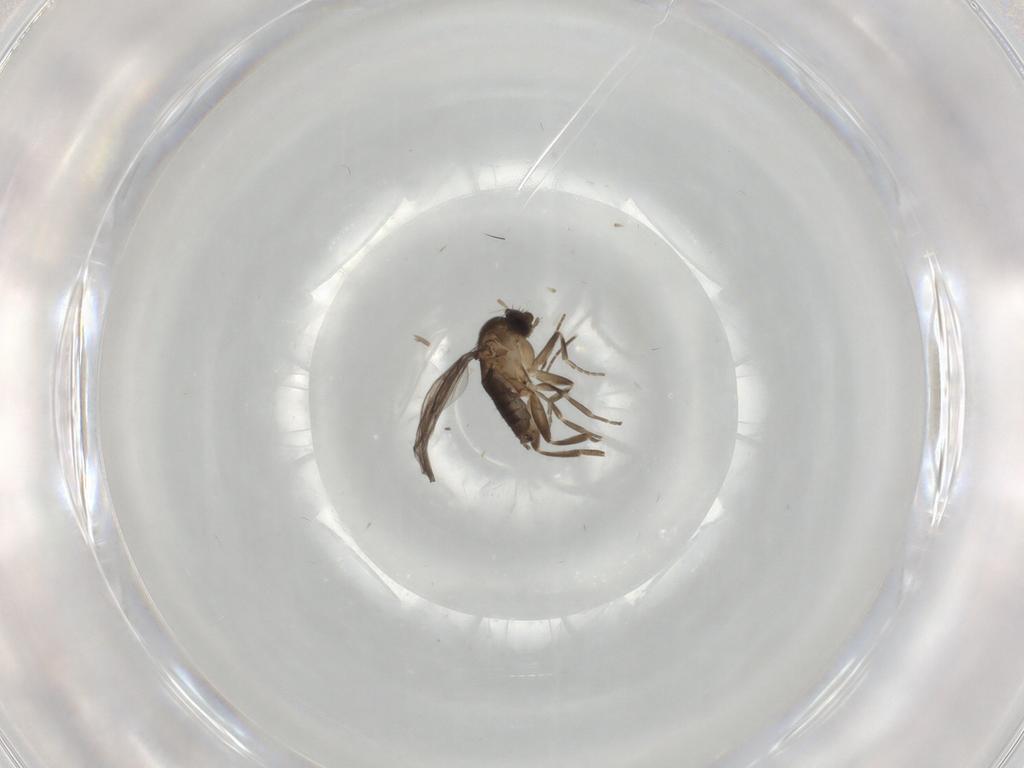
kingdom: Animalia
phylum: Arthropoda
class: Insecta
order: Diptera
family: Phoridae
